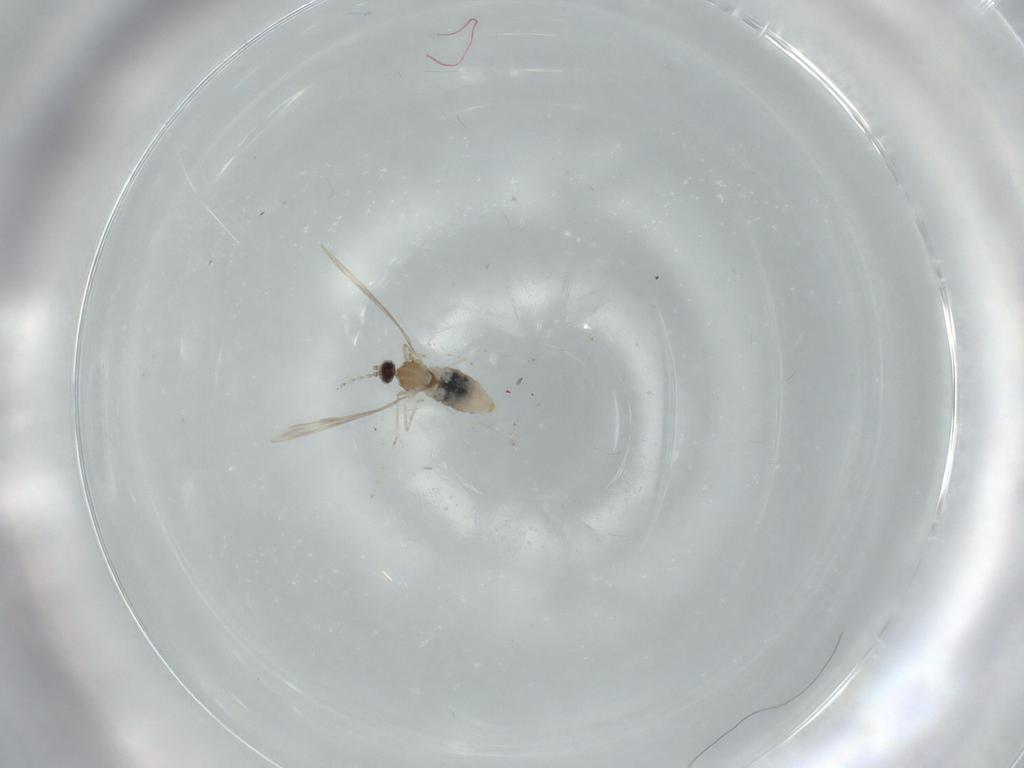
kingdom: Animalia
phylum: Arthropoda
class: Insecta
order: Diptera
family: Cecidomyiidae
